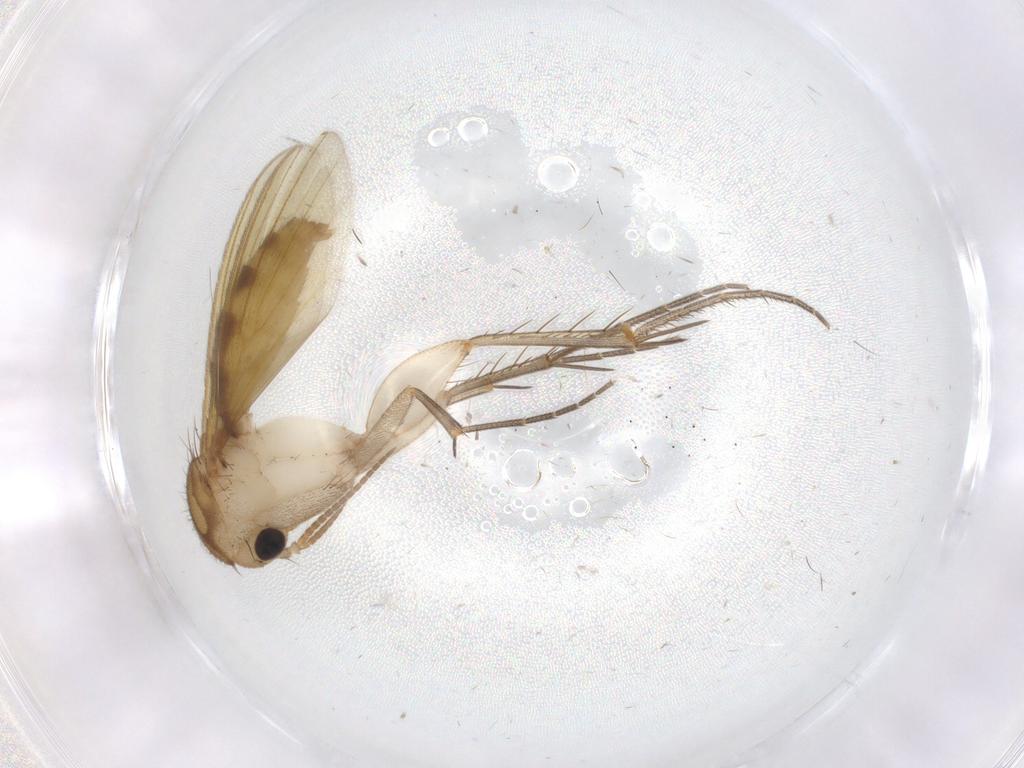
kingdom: Animalia
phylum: Arthropoda
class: Insecta
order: Diptera
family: Mycetophilidae
